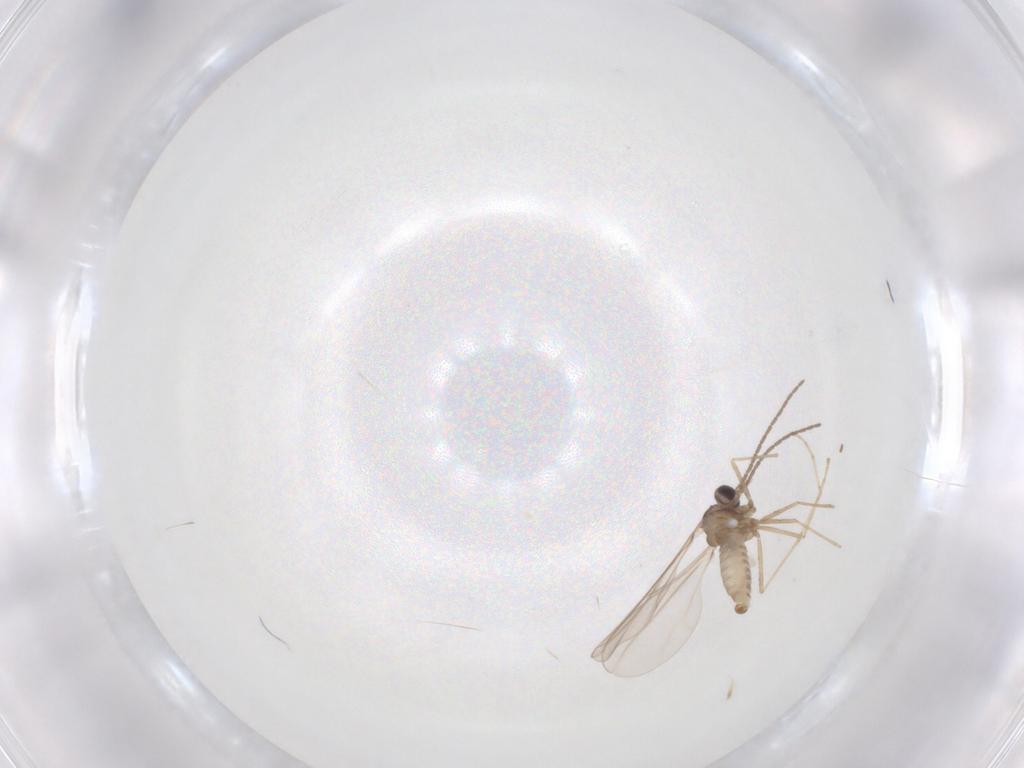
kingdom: Animalia
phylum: Arthropoda
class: Insecta
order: Diptera
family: Cecidomyiidae
